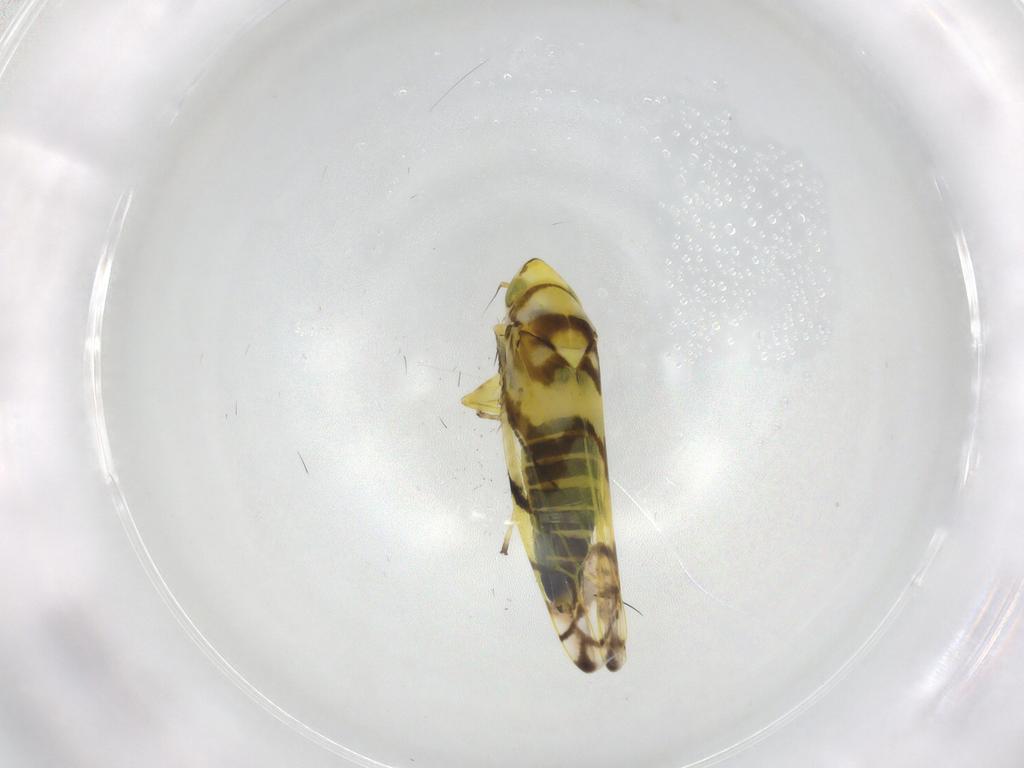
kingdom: Animalia
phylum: Arthropoda
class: Insecta
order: Hemiptera
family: Cicadellidae
